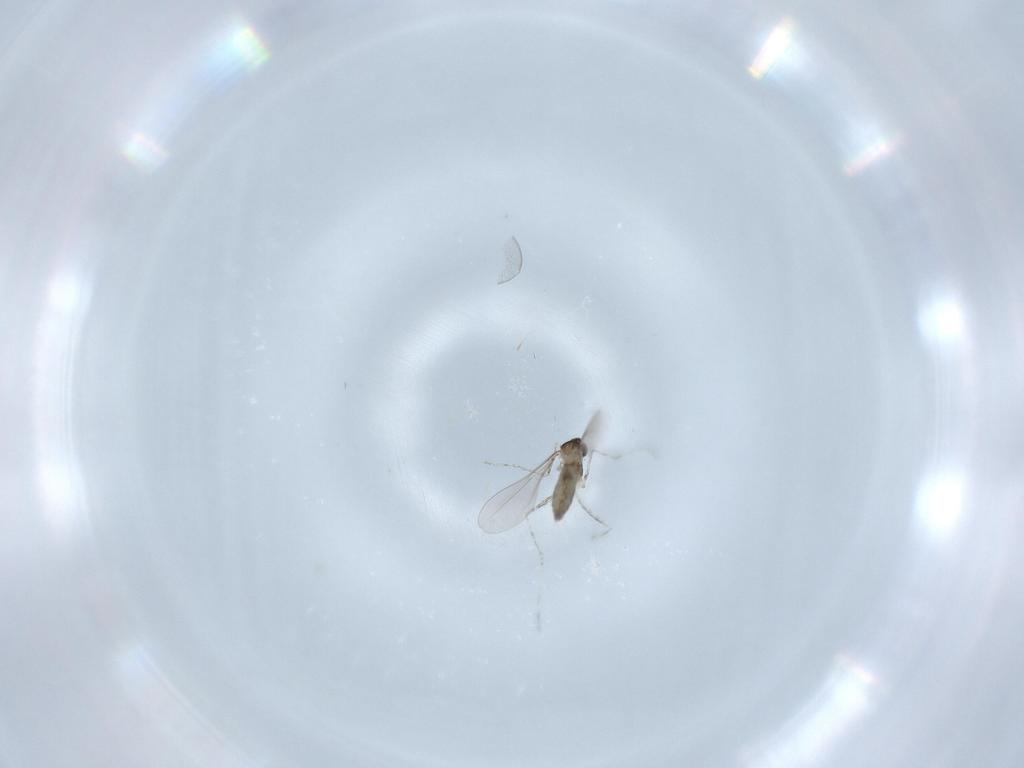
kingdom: Animalia
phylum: Arthropoda
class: Insecta
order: Diptera
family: Cecidomyiidae
